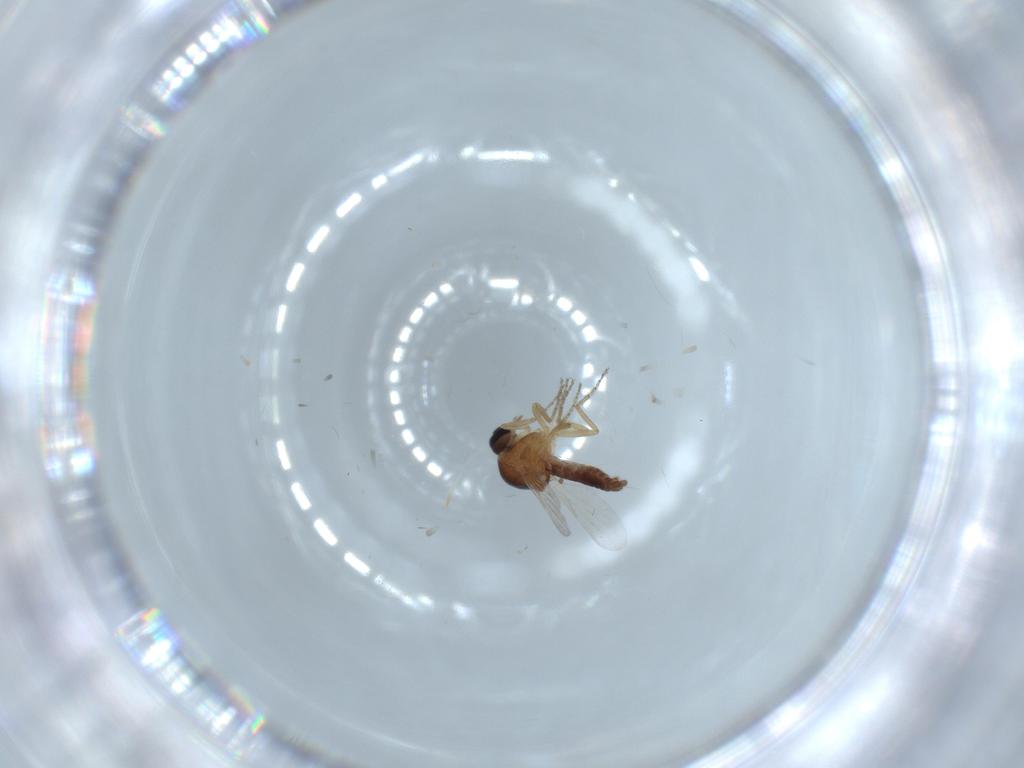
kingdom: Animalia
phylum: Arthropoda
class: Insecta
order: Diptera
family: Ceratopogonidae
